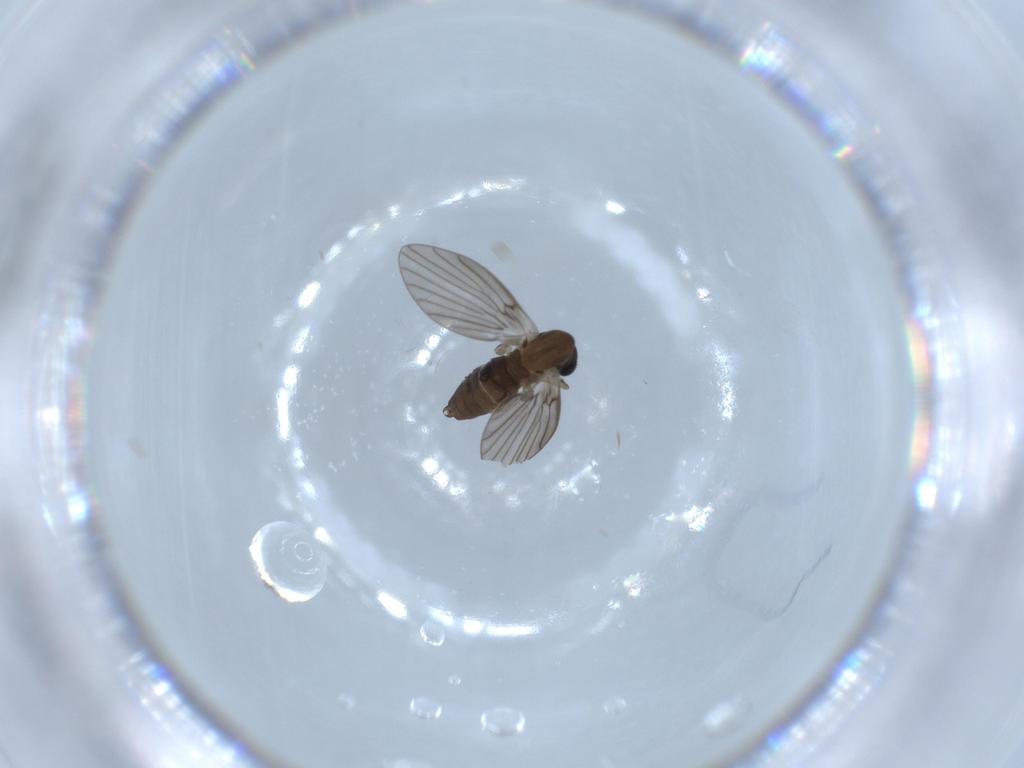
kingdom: Animalia
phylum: Arthropoda
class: Insecta
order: Diptera
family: Psychodidae
